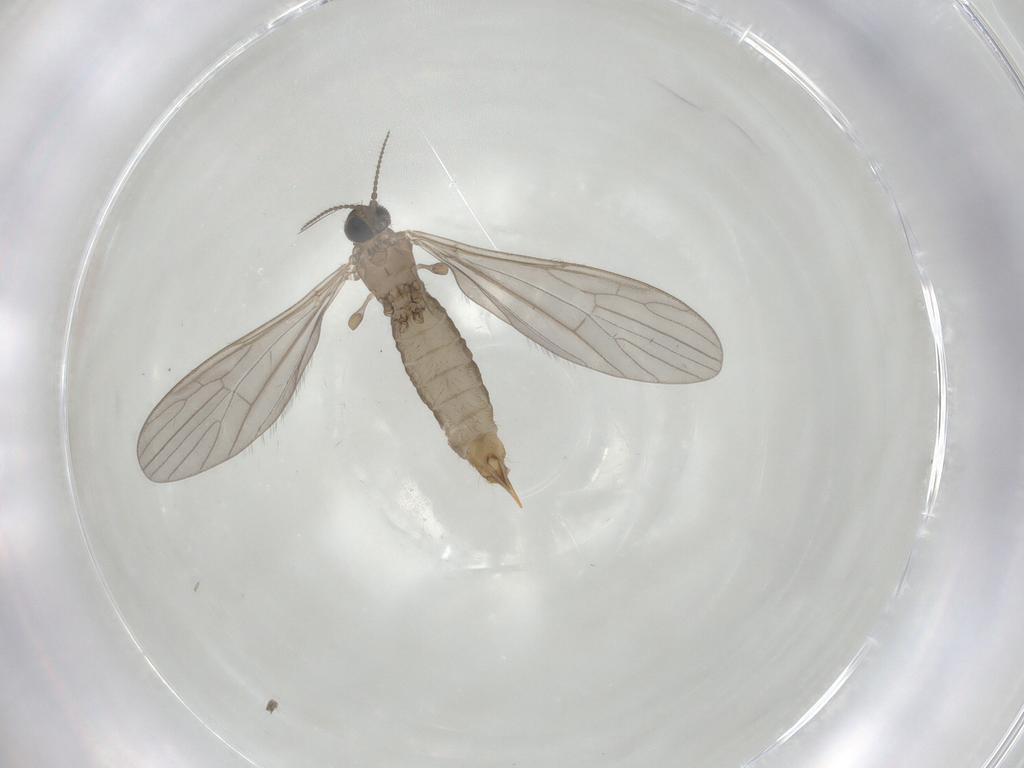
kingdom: Animalia
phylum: Arthropoda
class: Insecta
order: Diptera
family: Limoniidae
